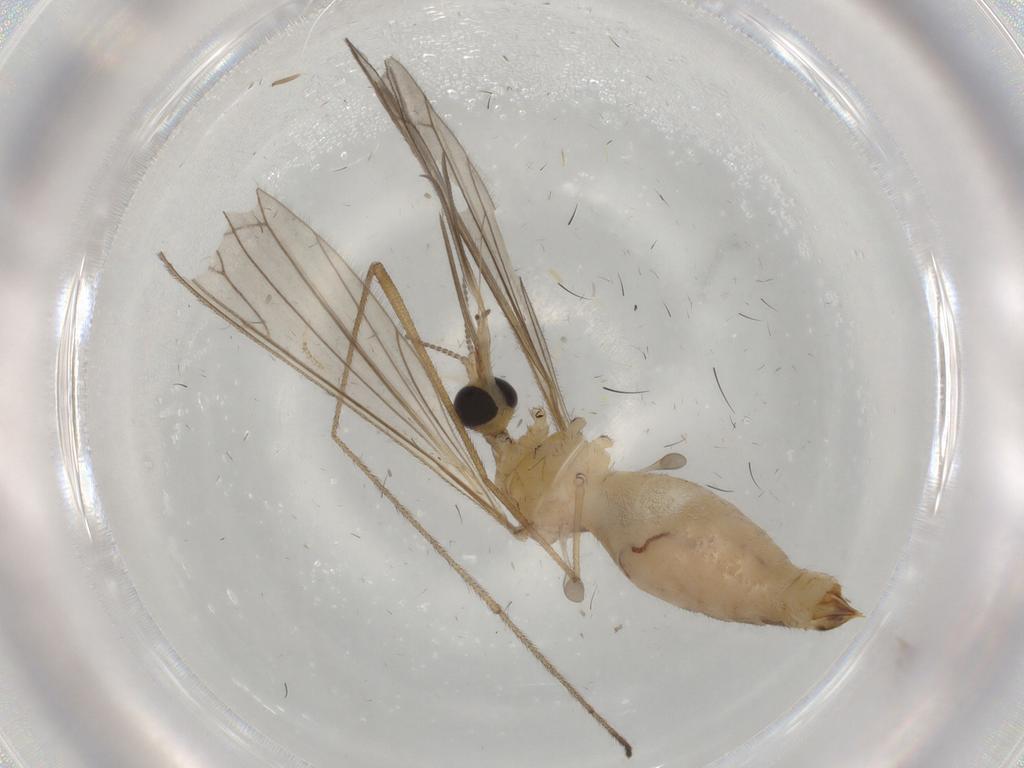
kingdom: Animalia
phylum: Arthropoda
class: Insecta
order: Diptera
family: Limoniidae
